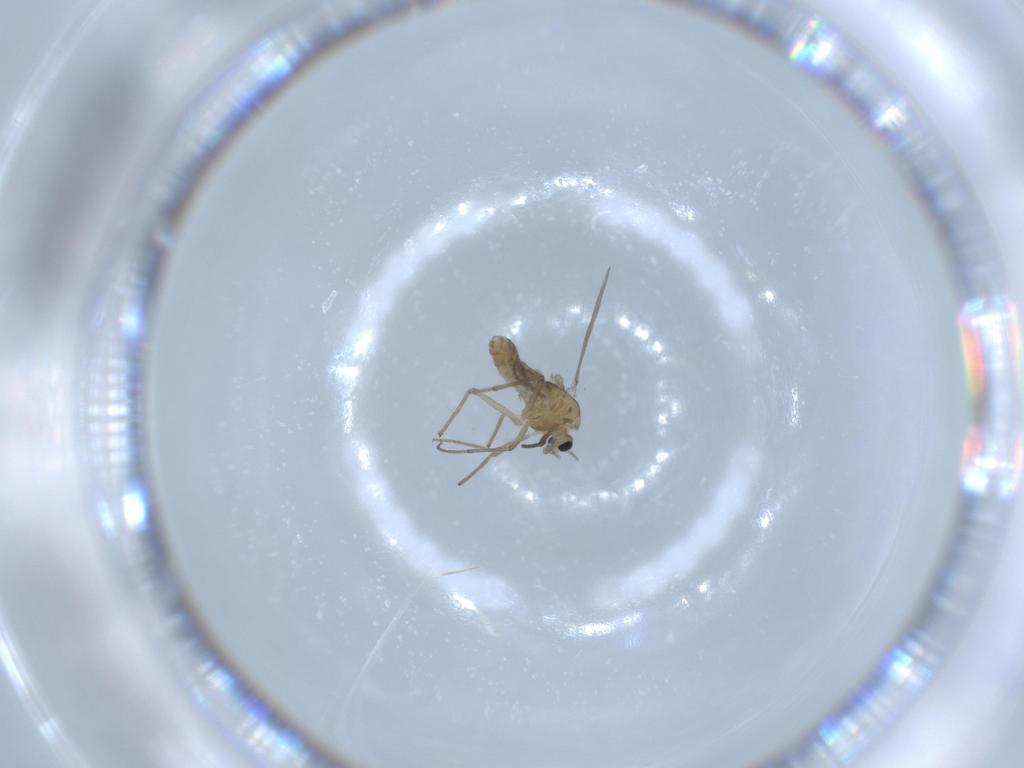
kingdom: Animalia
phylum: Arthropoda
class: Insecta
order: Diptera
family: Chironomidae
